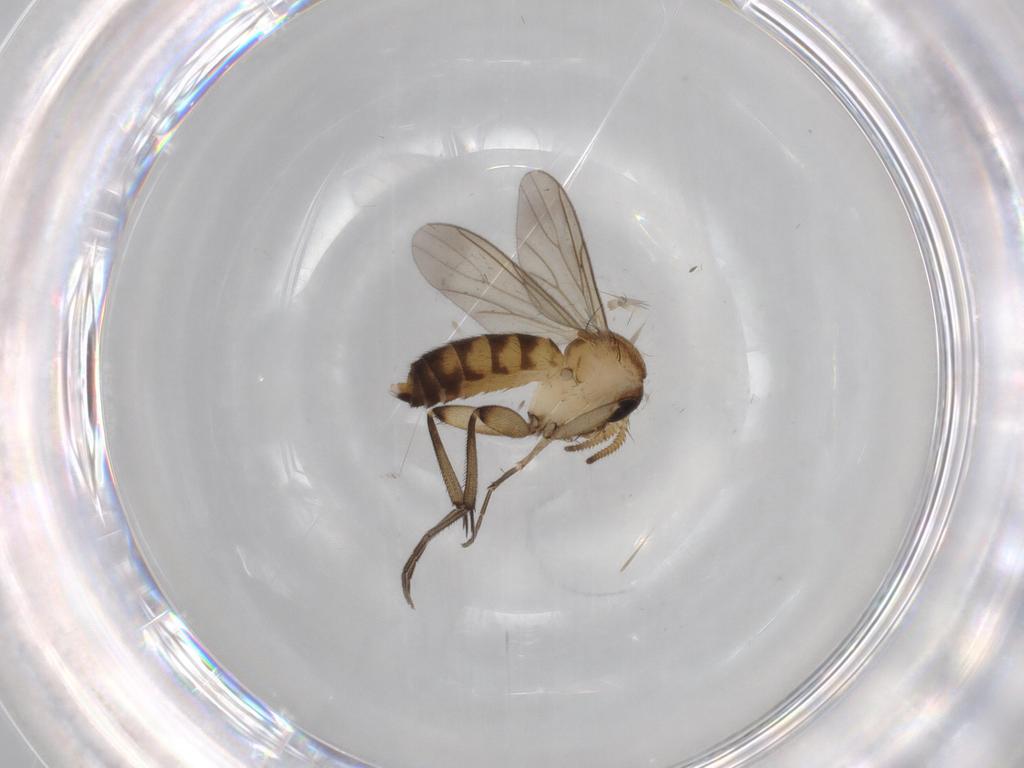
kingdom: Animalia
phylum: Arthropoda
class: Insecta
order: Diptera
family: Mycetophilidae
